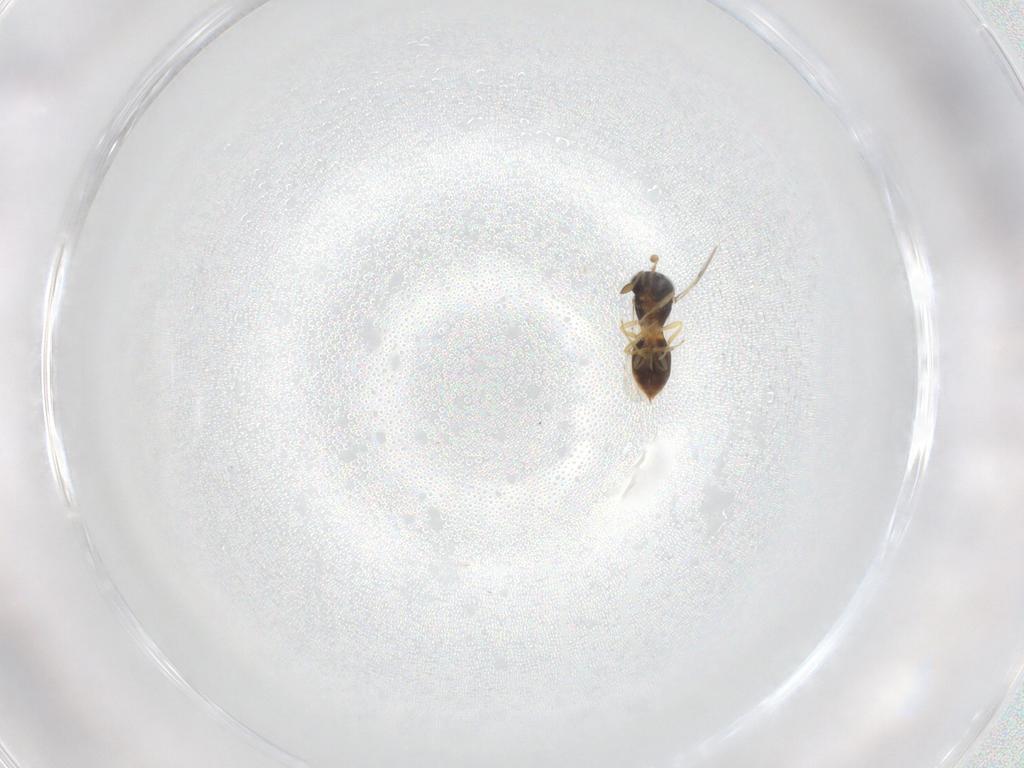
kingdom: Animalia
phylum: Arthropoda
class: Insecta
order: Hymenoptera
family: Scelionidae
